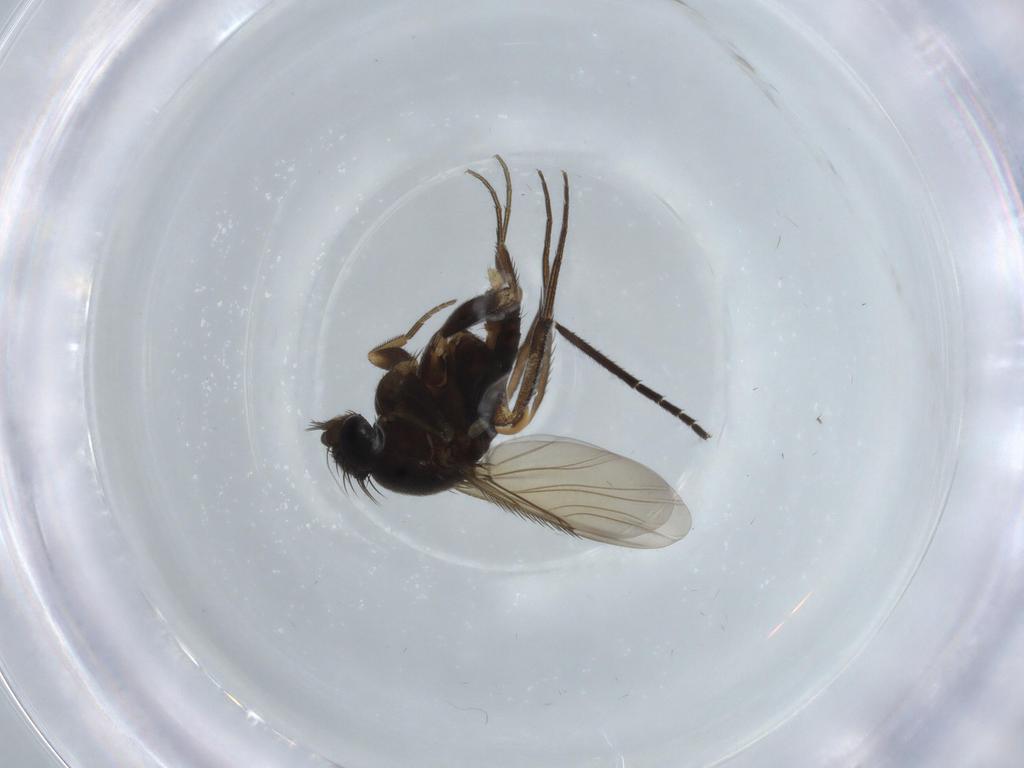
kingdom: Animalia
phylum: Arthropoda
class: Insecta
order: Diptera
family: Sciaridae
